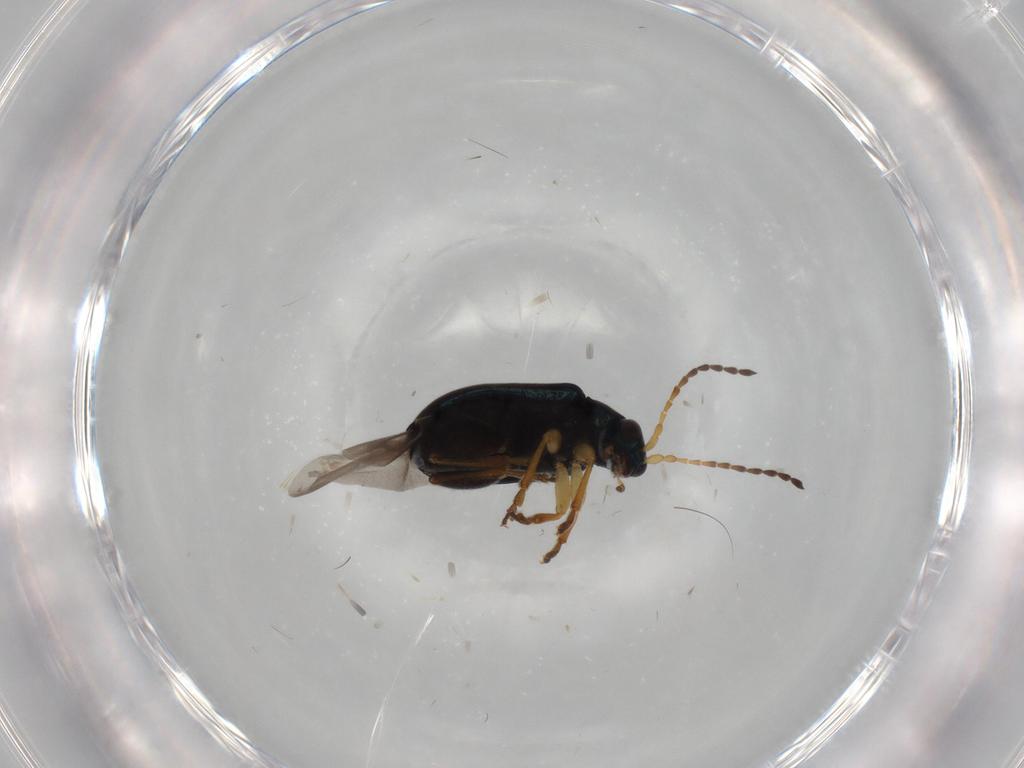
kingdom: Animalia
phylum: Arthropoda
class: Insecta
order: Coleoptera
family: Chrysomelidae
